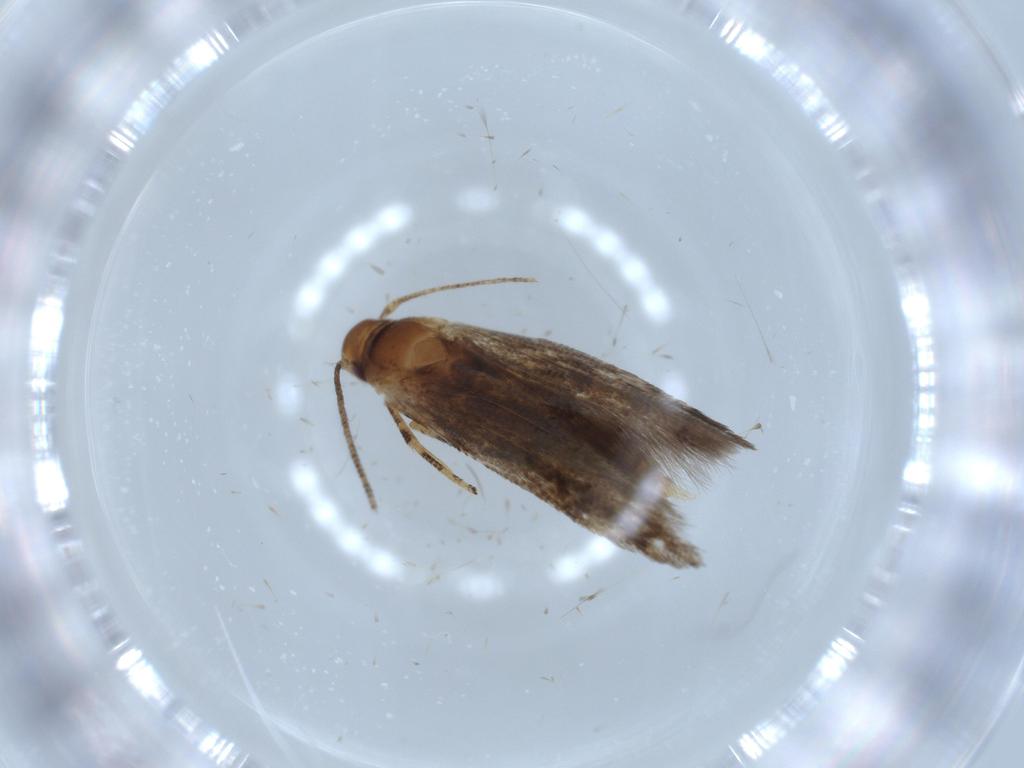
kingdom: Animalia
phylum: Arthropoda
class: Insecta
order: Lepidoptera
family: Momphidae
